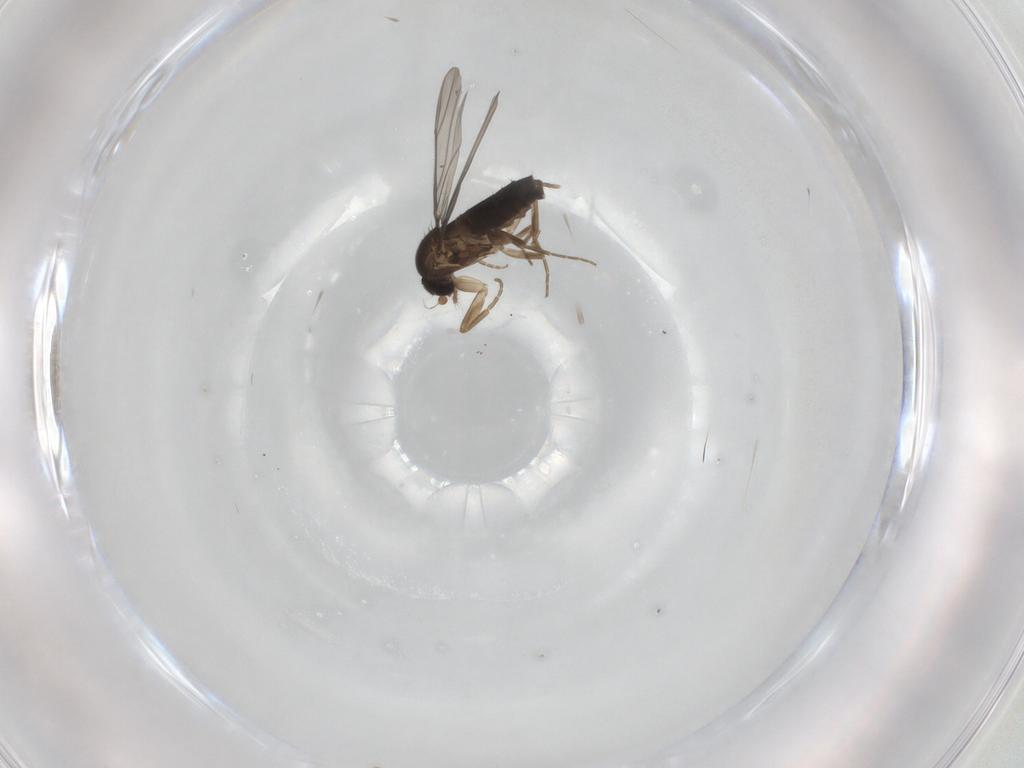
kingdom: Animalia
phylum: Arthropoda
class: Insecta
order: Diptera
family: Phoridae
